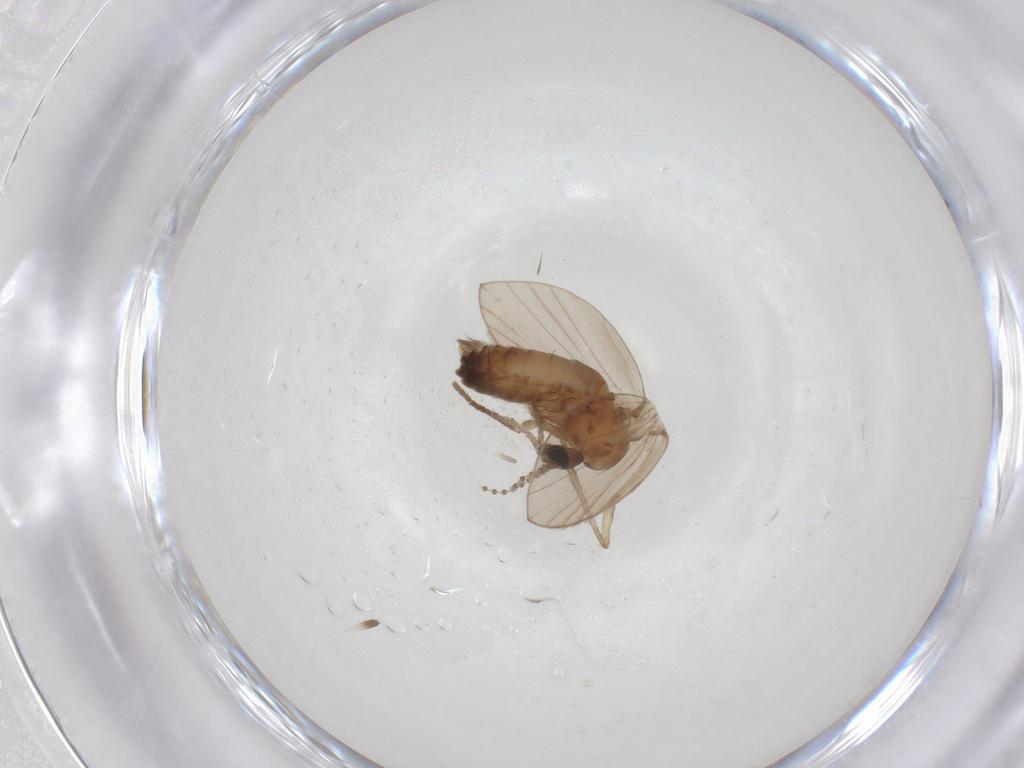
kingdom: Animalia
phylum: Arthropoda
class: Insecta
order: Diptera
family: Psychodidae
